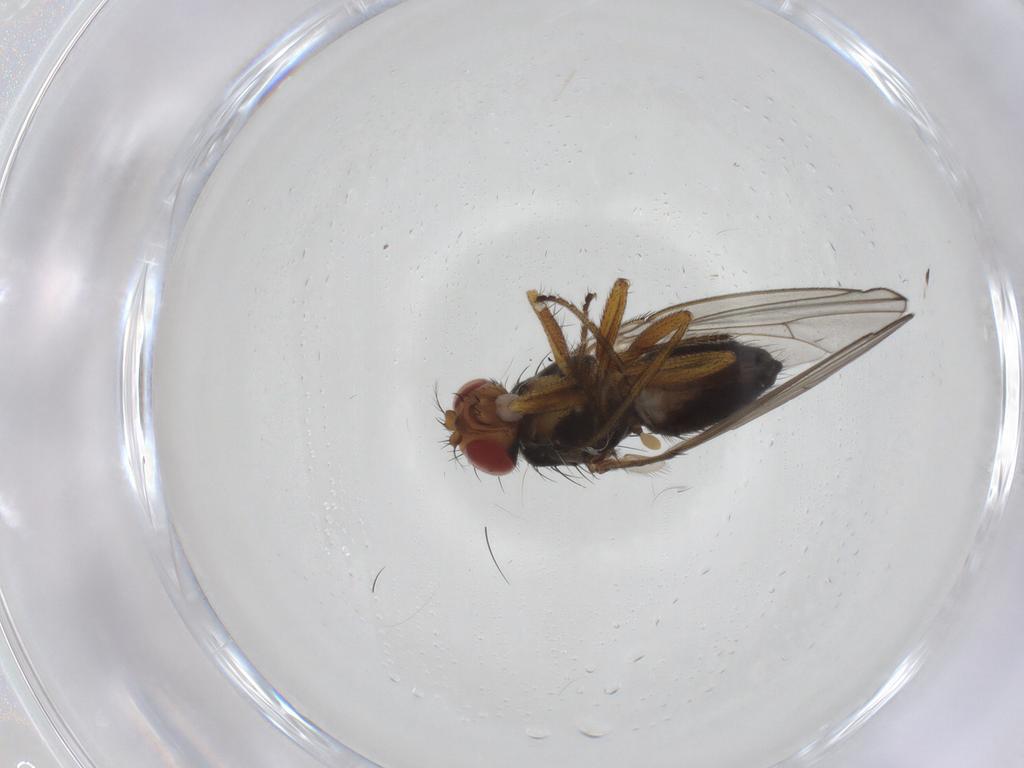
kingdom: Animalia
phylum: Arthropoda
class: Insecta
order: Diptera
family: Drosophilidae
